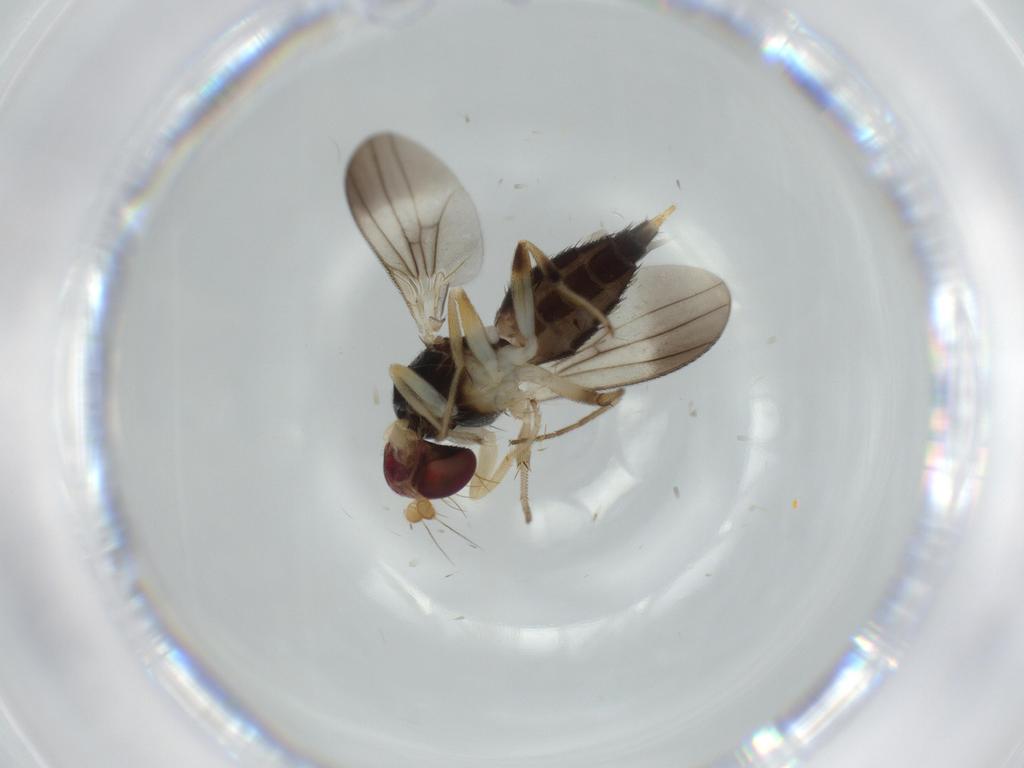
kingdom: Animalia
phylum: Arthropoda
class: Insecta
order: Diptera
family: Clusiidae
